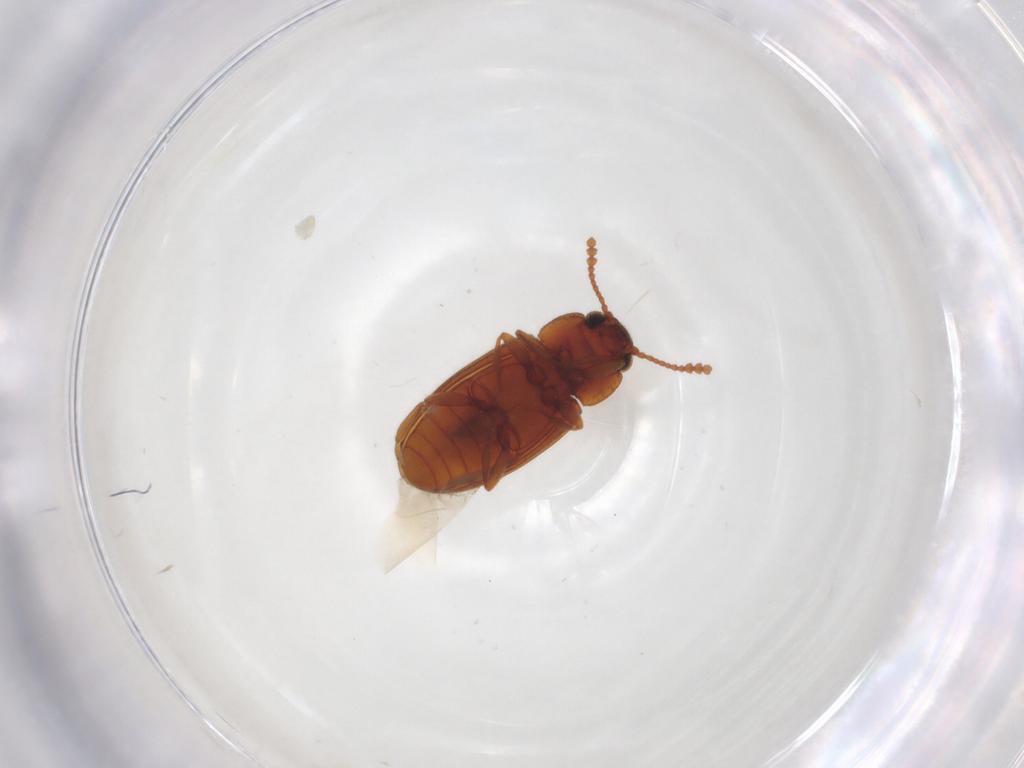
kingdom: Animalia
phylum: Arthropoda
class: Insecta
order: Coleoptera
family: Erotylidae
